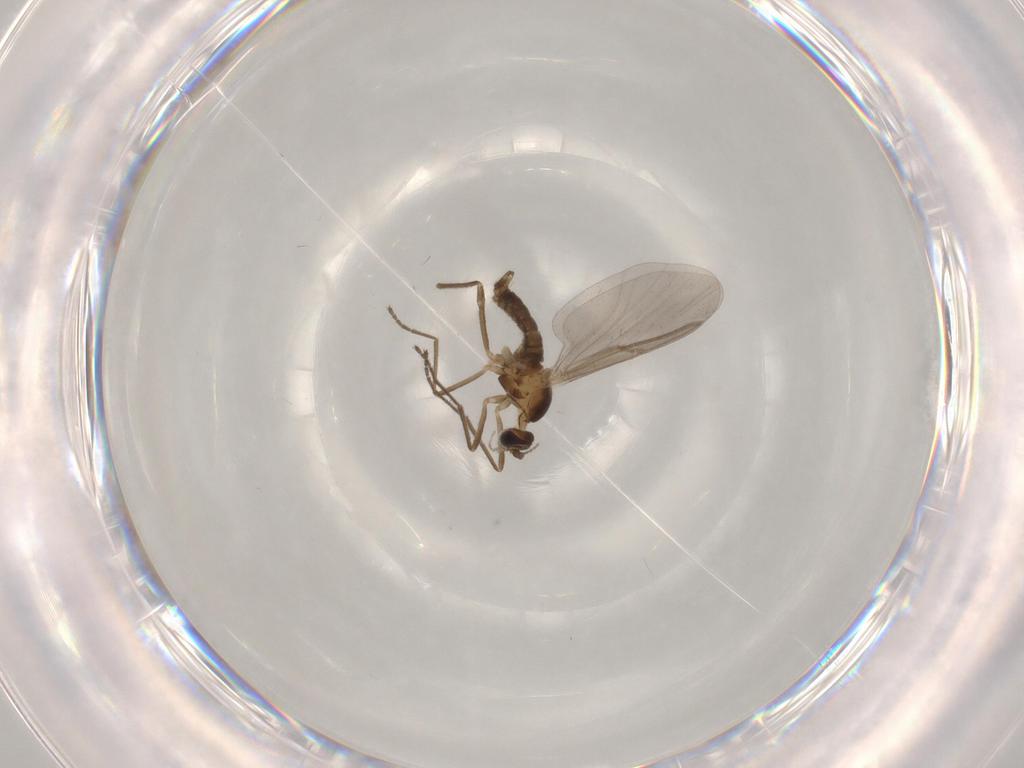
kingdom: Animalia
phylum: Arthropoda
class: Insecta
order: Diptera
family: Cecidomyiidae
